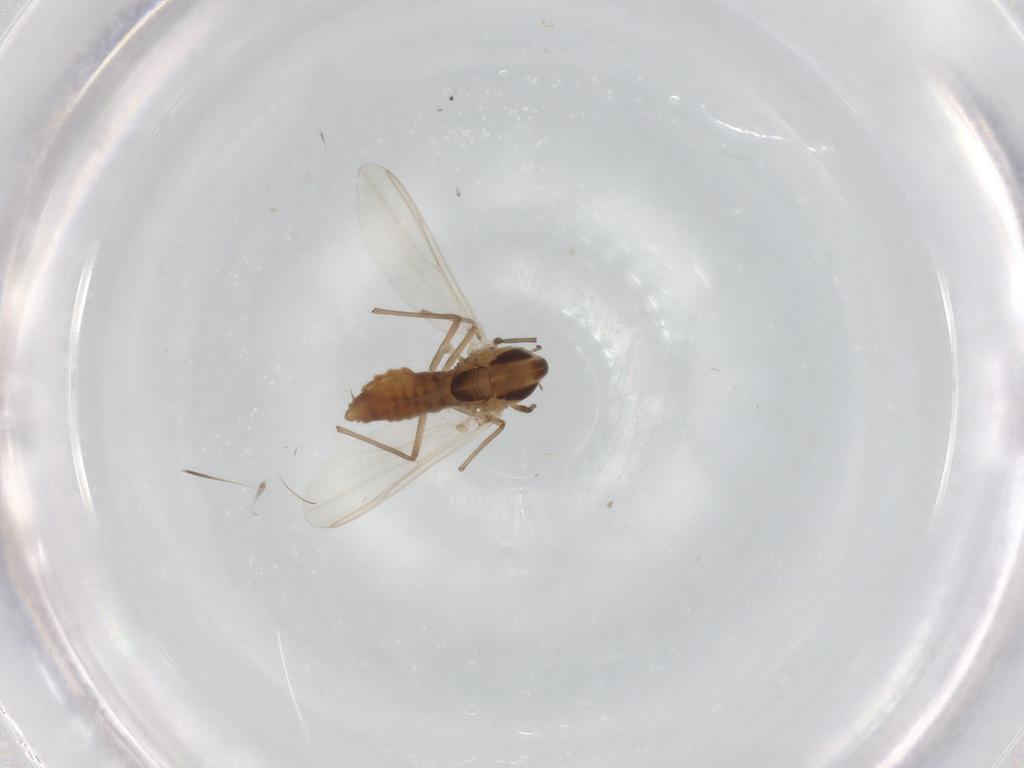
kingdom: Animalia
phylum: Arthropoda
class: Insecta
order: Diptera
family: Chironomidae
